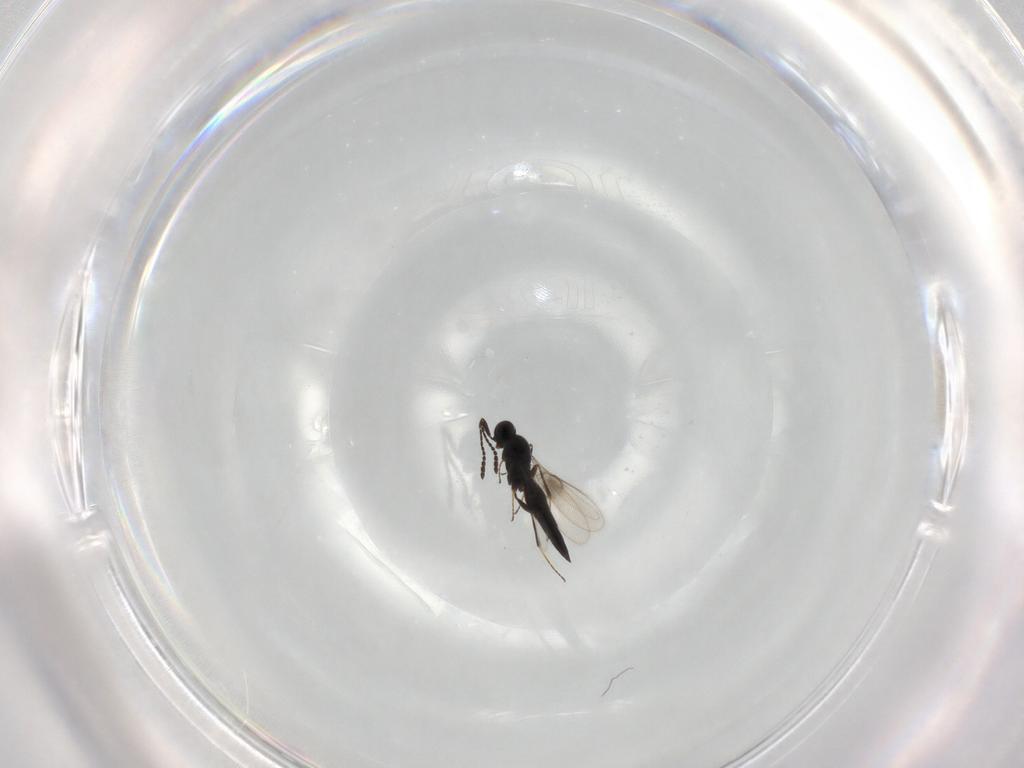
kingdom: Animalia
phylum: Arthropoda
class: Insecta
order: Hymenoptera
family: Scelionidae
